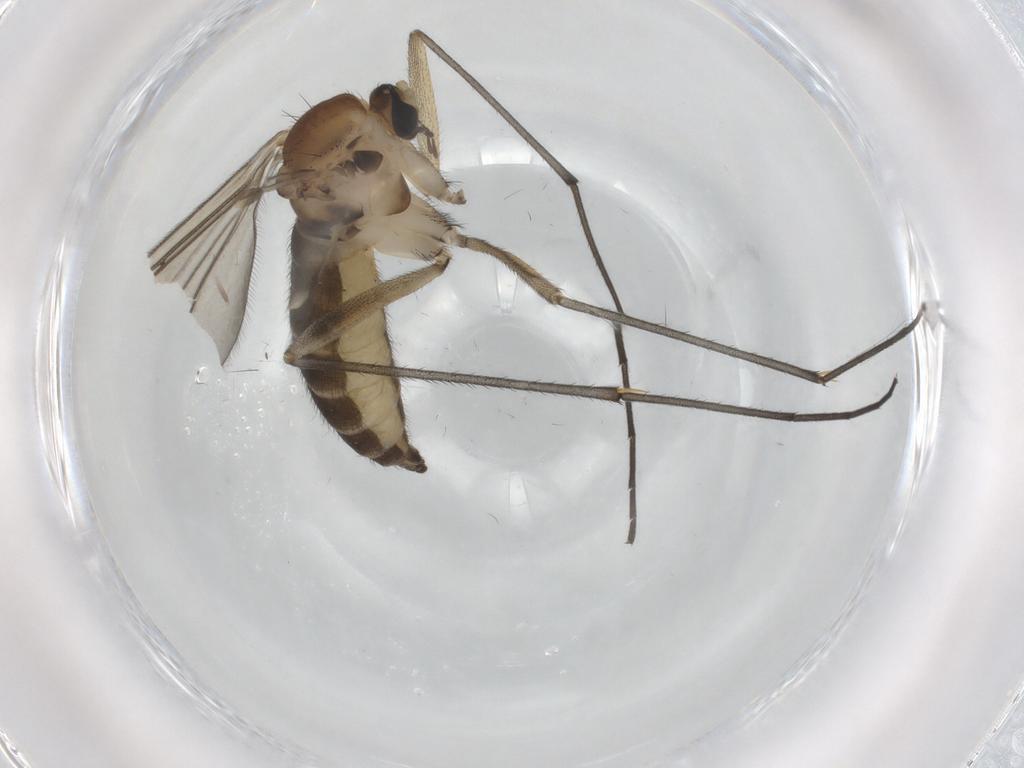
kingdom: Animalia
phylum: Arthropoda
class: Insecta
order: Diptera
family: Sciaridae
